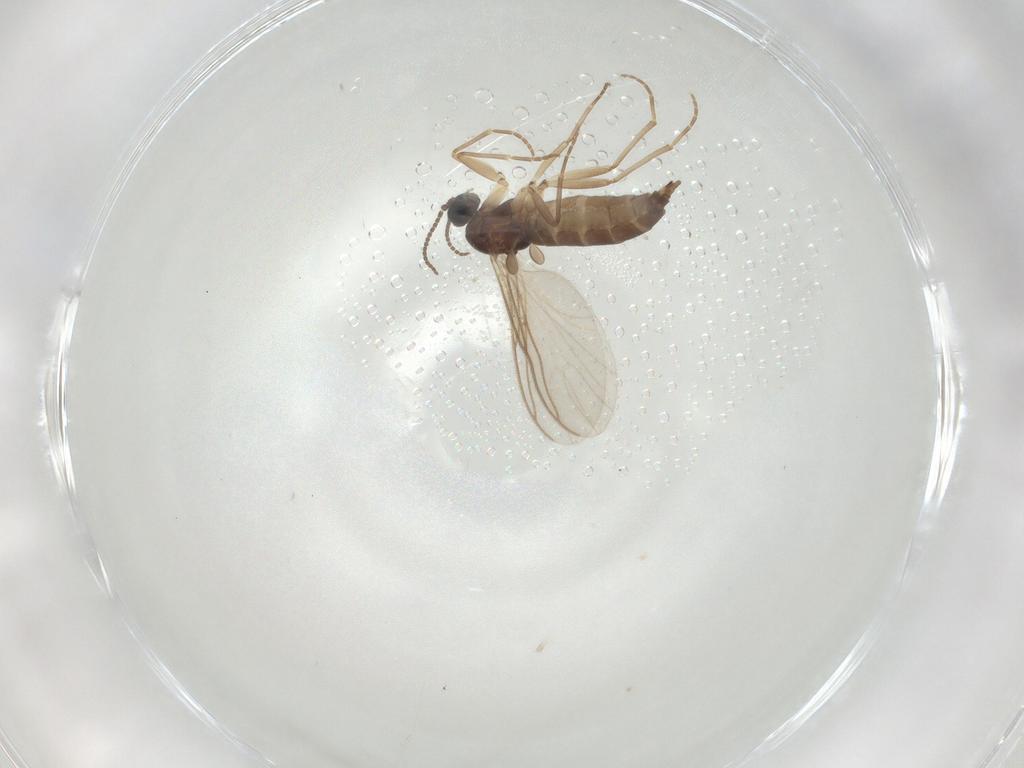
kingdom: Animalia
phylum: Arthropoda
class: Insecta
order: Diptera
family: Sciaridae
